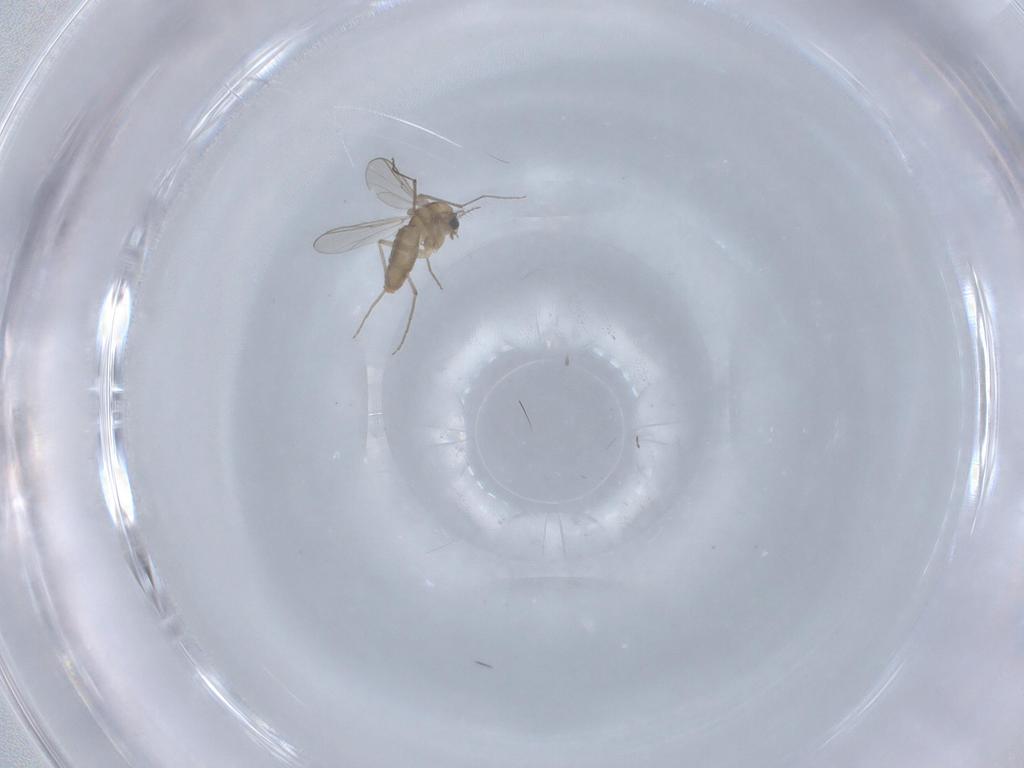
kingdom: Animalia
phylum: Arthropoda
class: Insecta
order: Diptera
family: Chironomidae
